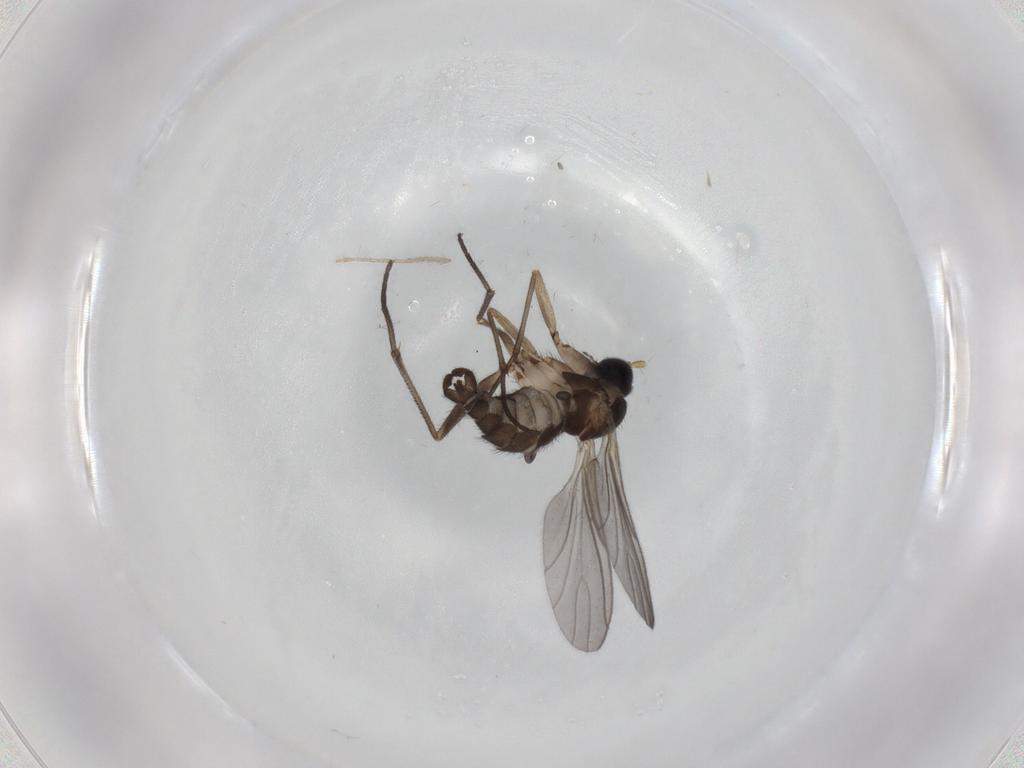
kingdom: Animalia
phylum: Arthropoda
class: Insecta
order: Diptera
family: Sciaridae
